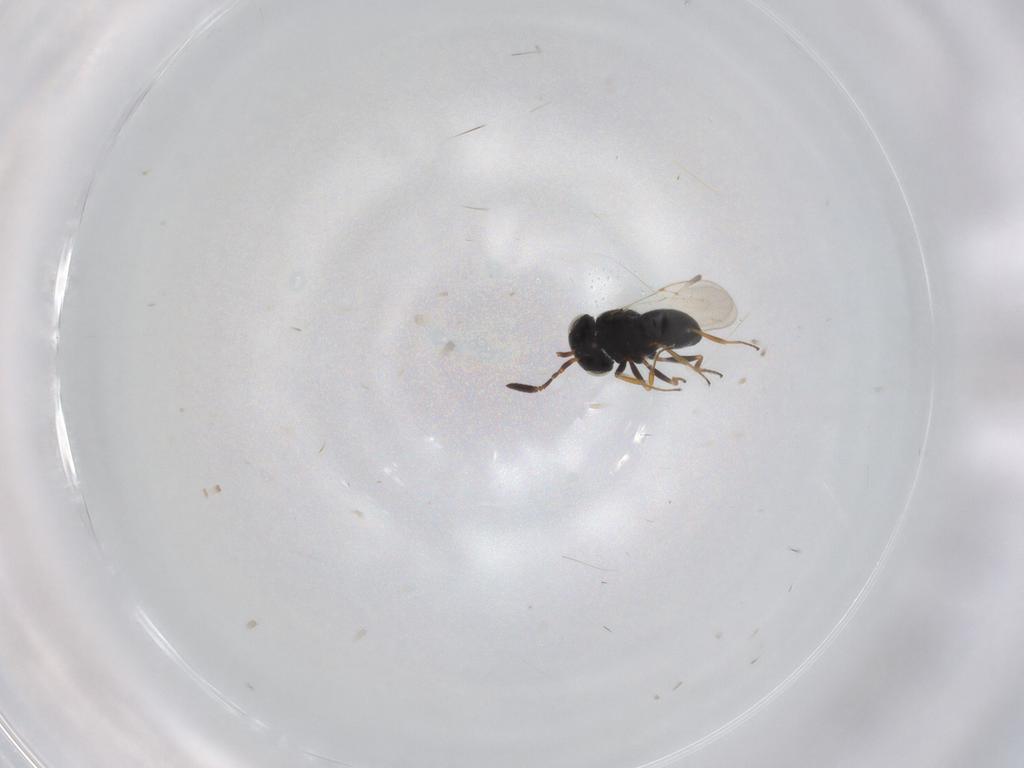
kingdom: Animalia
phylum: Arthropoda
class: Insecta
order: Coleoptera
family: Curculionidae
